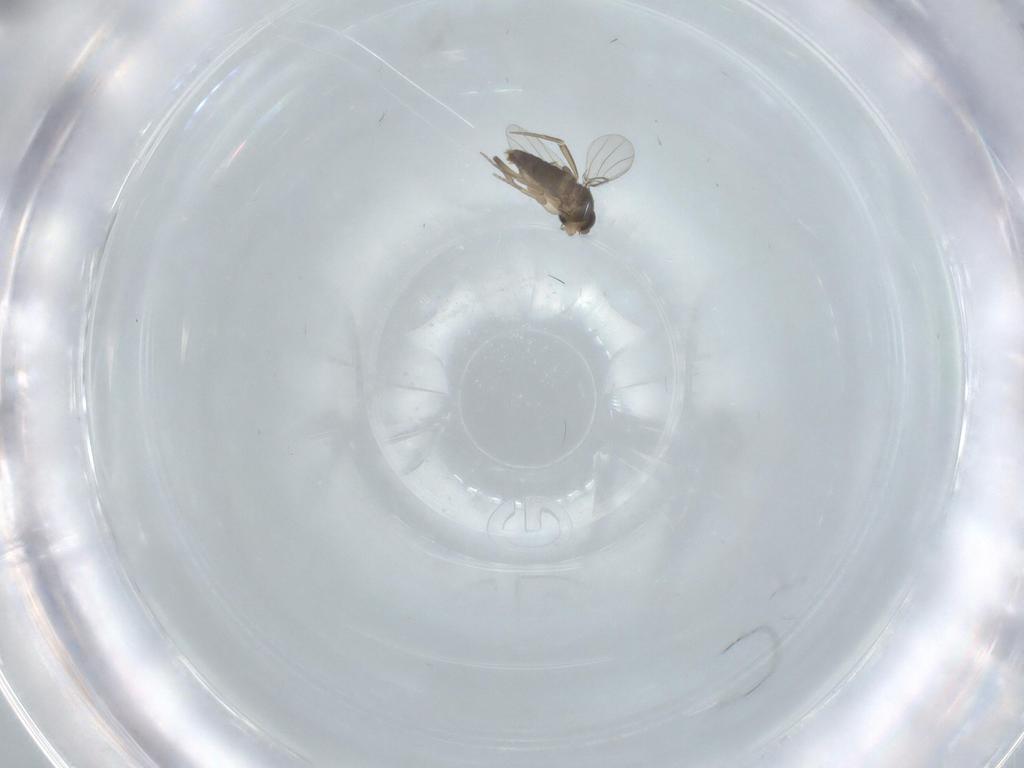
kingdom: Animalia
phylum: Arthropoda
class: Insecta
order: Diptera
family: Phoridae
